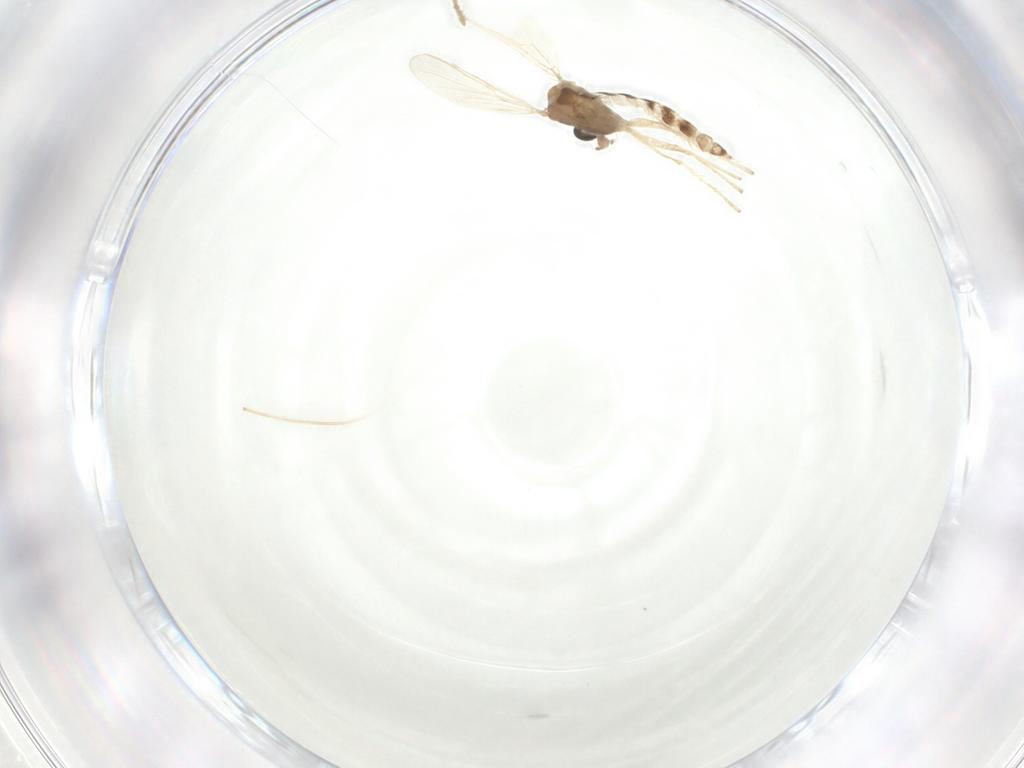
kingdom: Animalia
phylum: Arthropoda
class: Insecta
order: Diptera
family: Chironomidae
